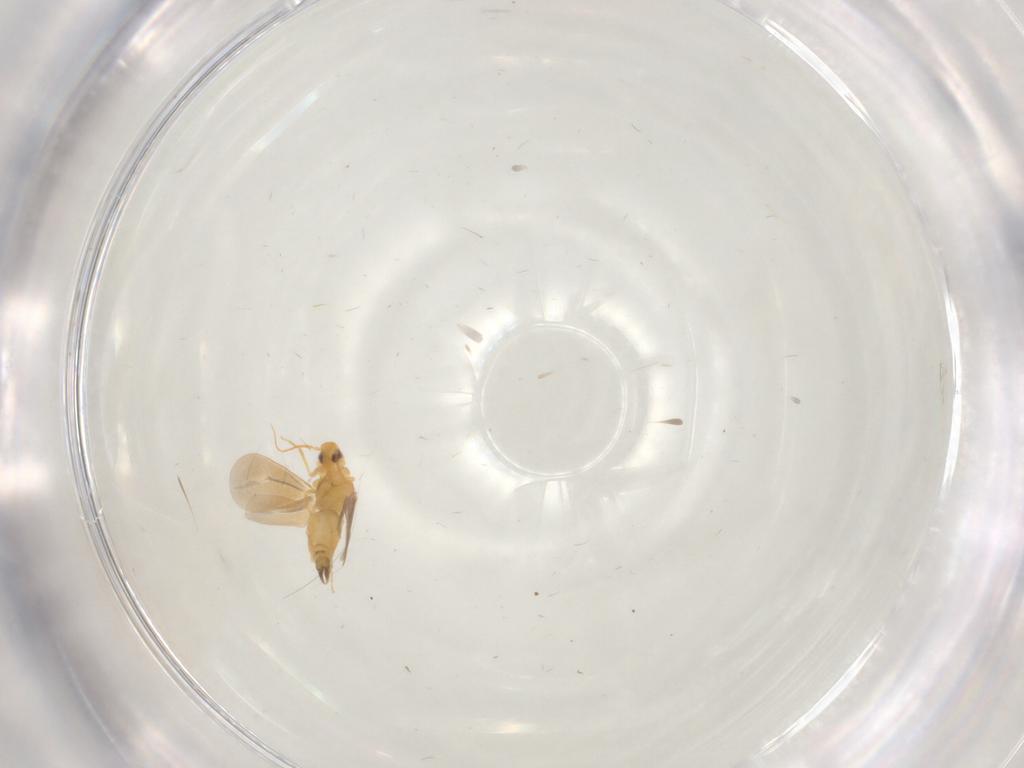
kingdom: Animalia
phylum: Arthropoda
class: Insecta
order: Hemiptera
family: Aleyrodidae
